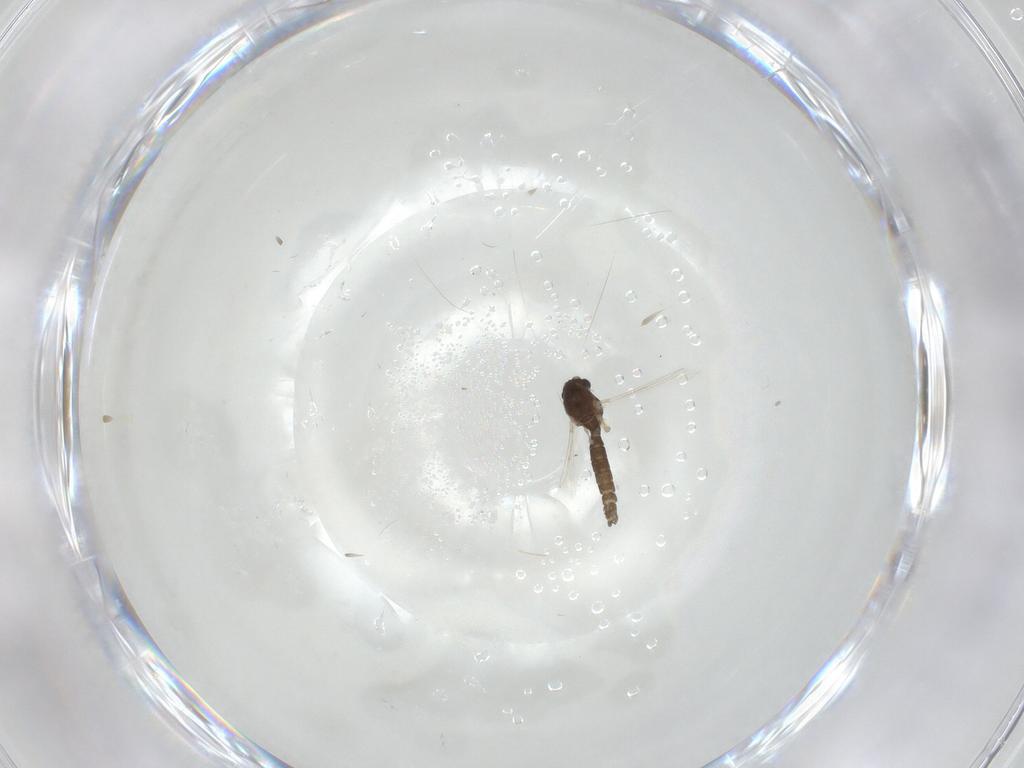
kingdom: Animalia
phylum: Arthropoda
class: Insecta
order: Diptera
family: Chironomidae
